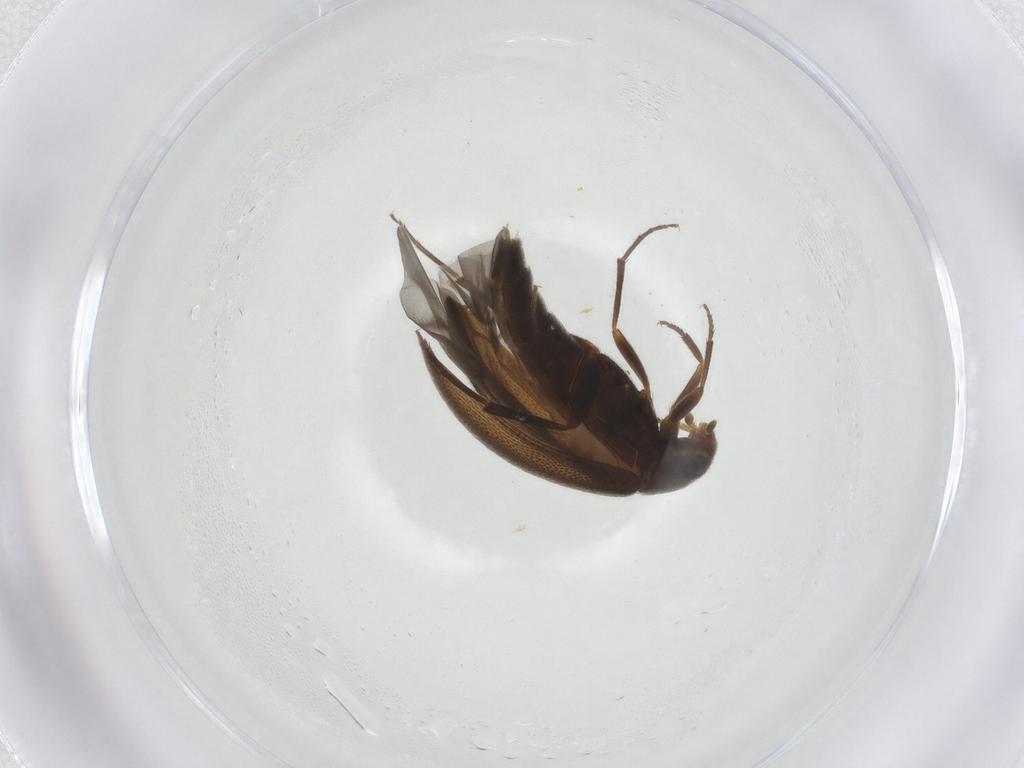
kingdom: Animalia
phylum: Arthropoda
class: Insecta
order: Coleoptera
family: Melandryidae
